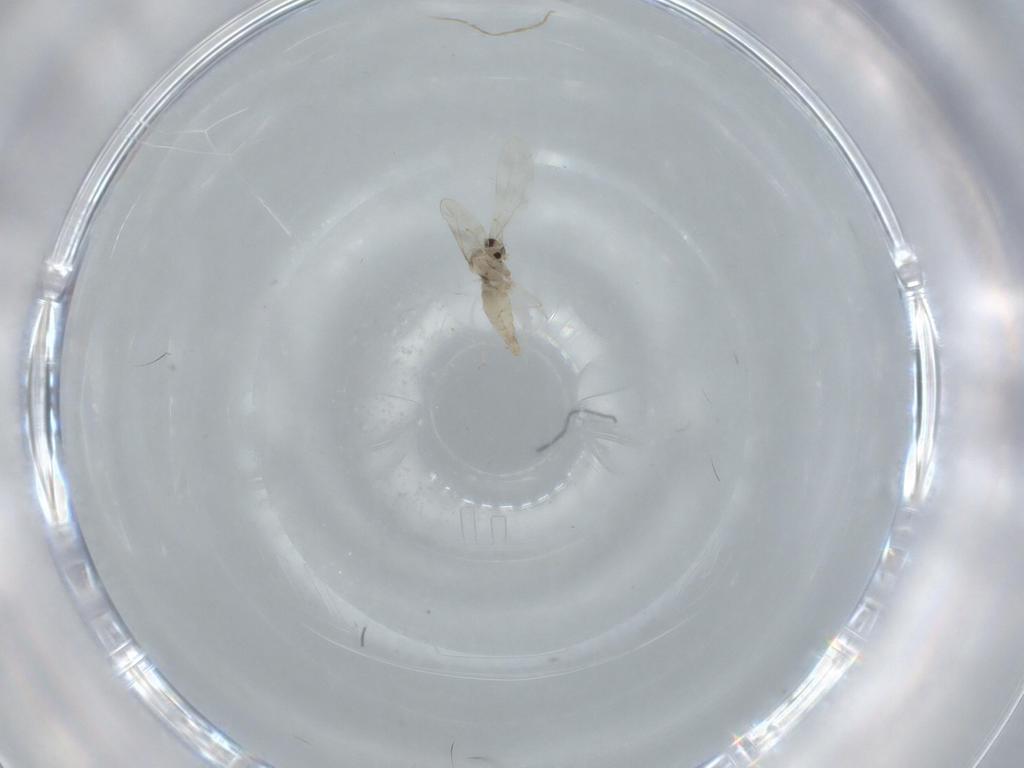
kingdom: Animalia
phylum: Arthropoda
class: Insecta
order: Diptera
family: Cecidomyiidae
